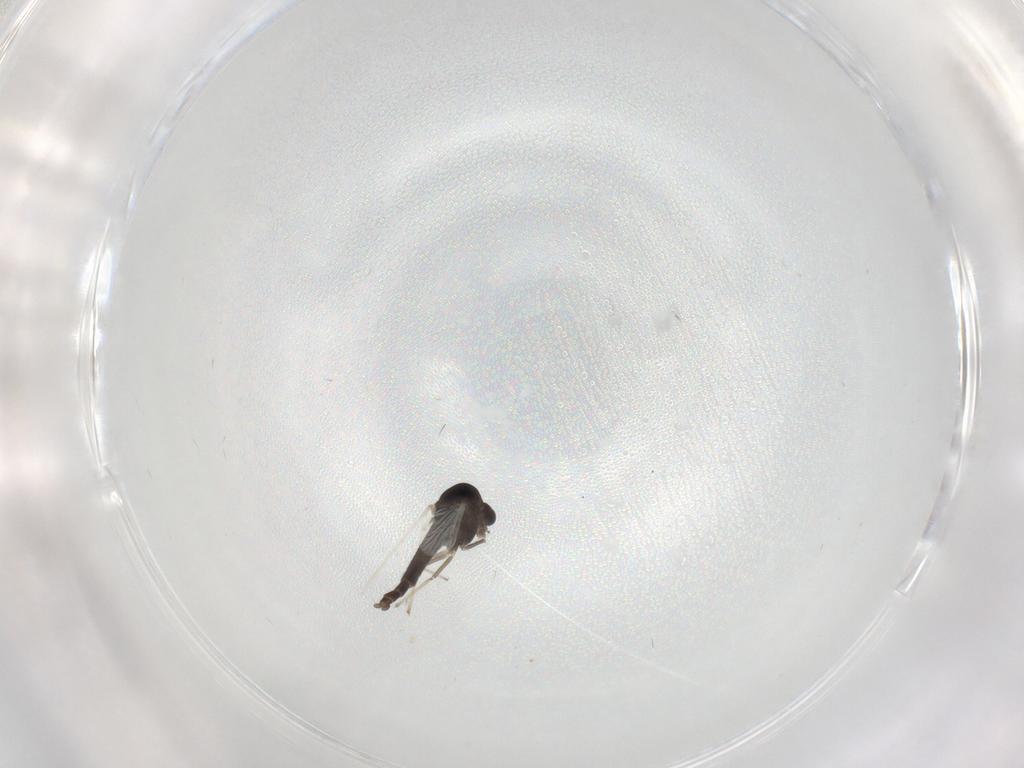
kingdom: Animalia
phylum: Arthropoda
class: Insecta
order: Diptera
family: Chironomidae
